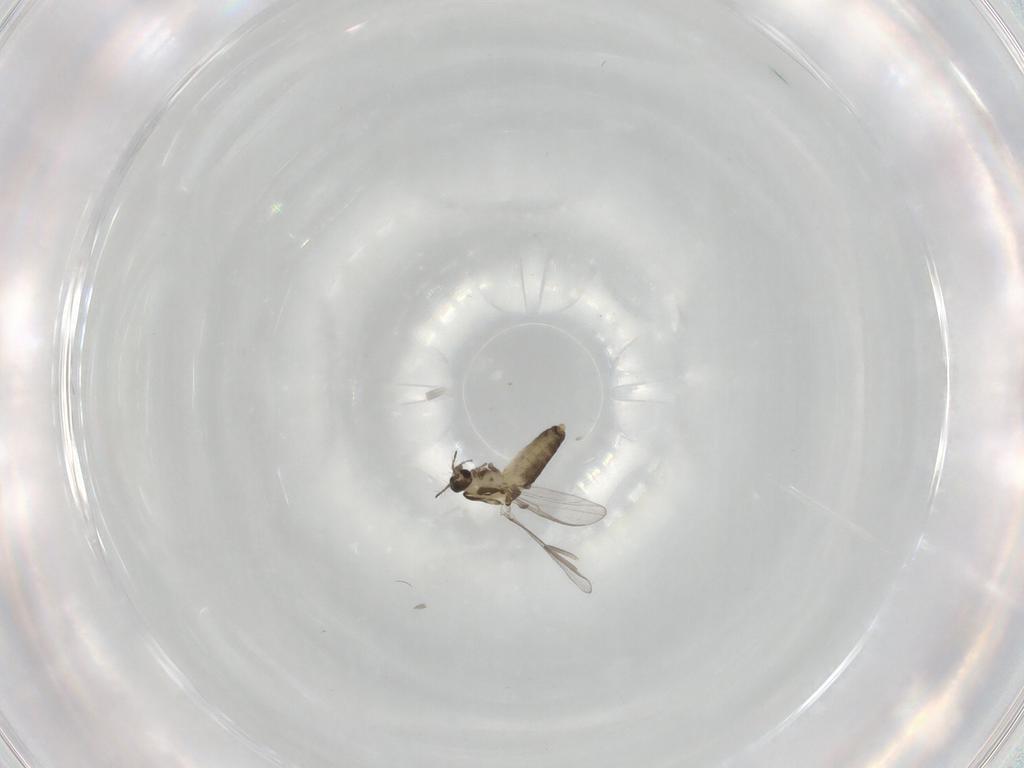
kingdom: Animalia
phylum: Arthropoda
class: Insecta
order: Diptera
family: Chironomidae
